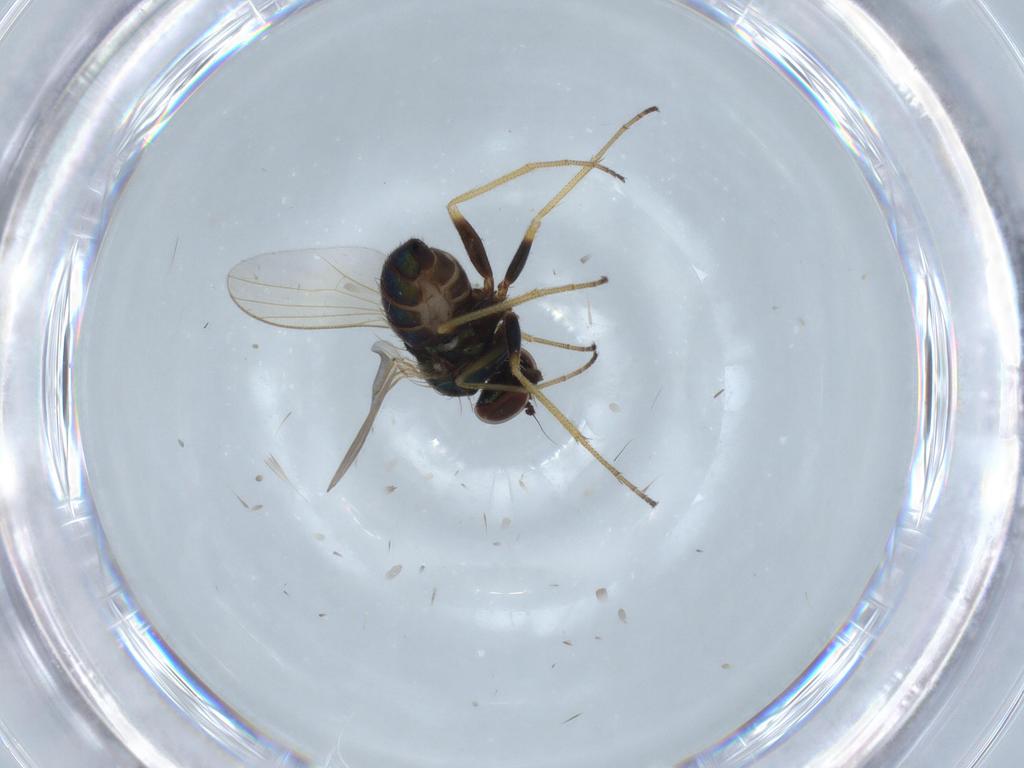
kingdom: Animalia
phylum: Arthropoda
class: Insecta
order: Diptera
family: Dolichopodidae
